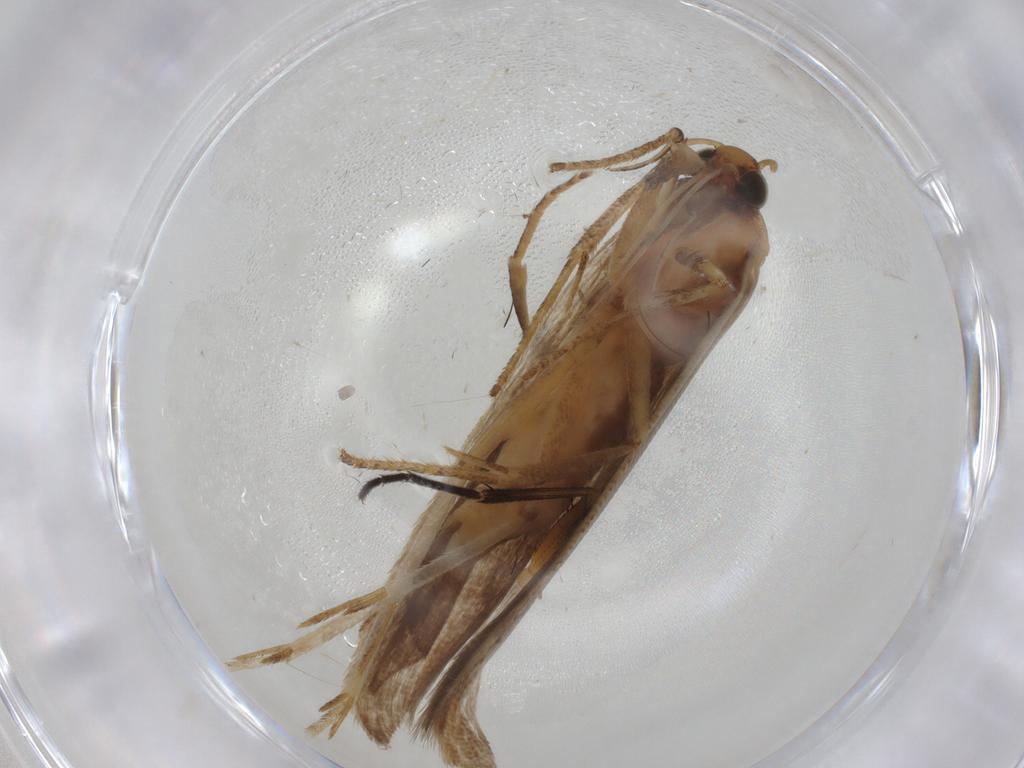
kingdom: Animalia
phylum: Arthropoda
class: Insecta
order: Lepidoptera
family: Gelechiidae
